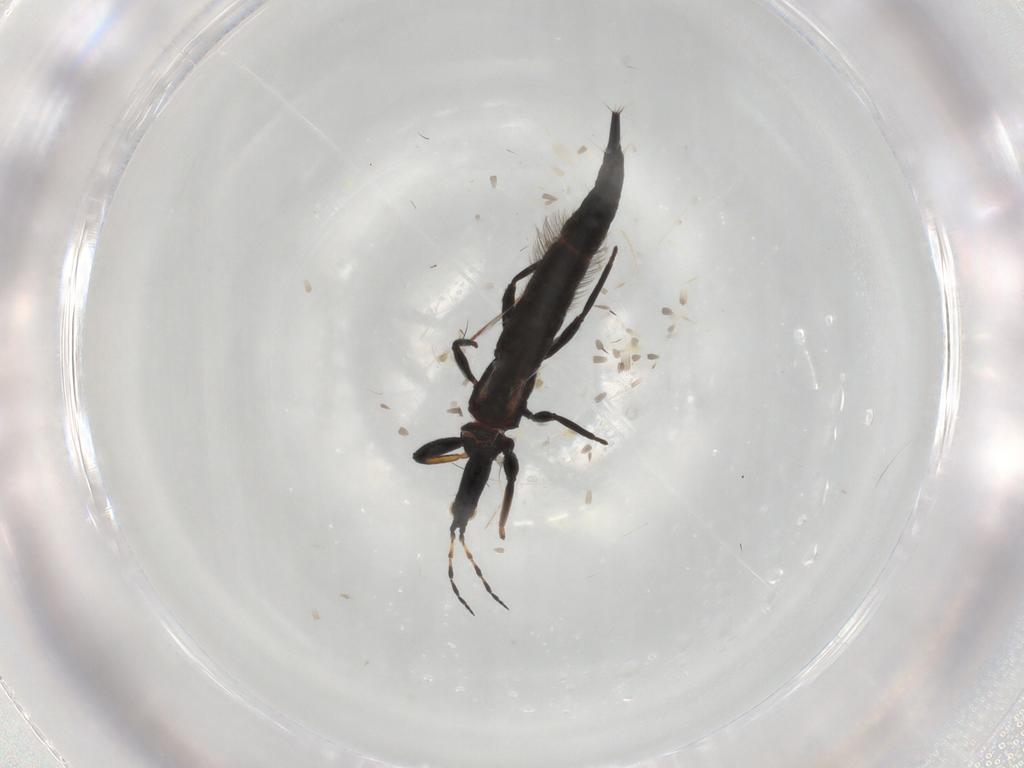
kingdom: Animalia
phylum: Arthropoda
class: Insecta
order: Thysanoptera
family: Phlaeothripidae
